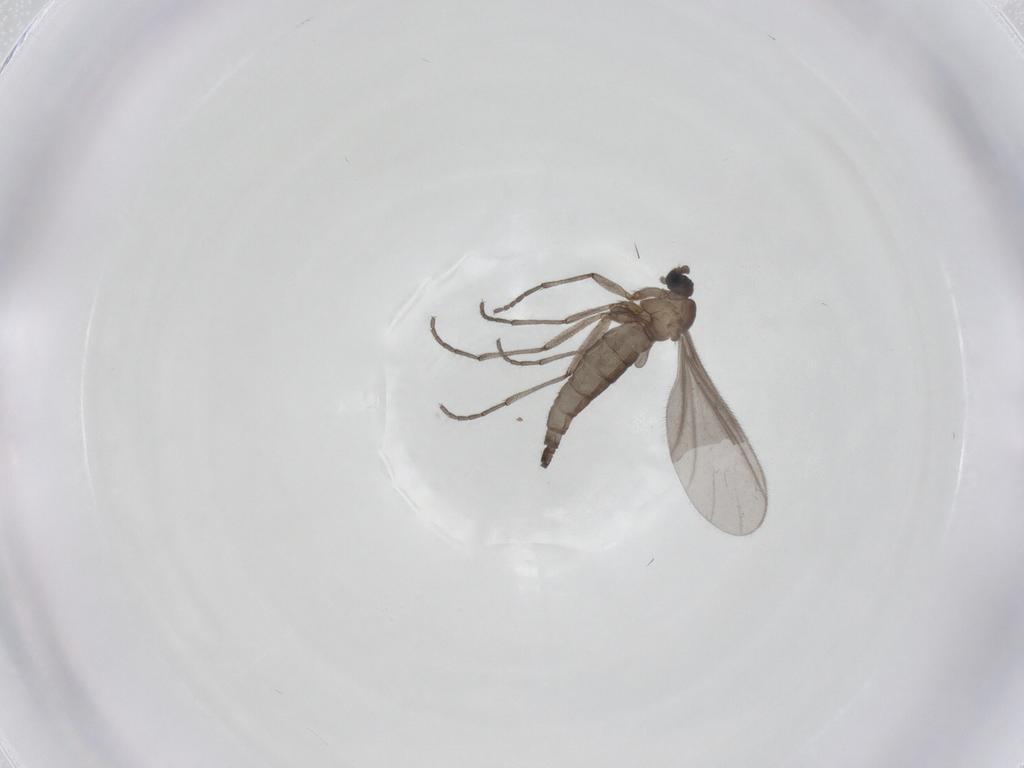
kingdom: Animalia
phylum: Arthropoda
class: Insecta
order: Diptera
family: Sciaridae
